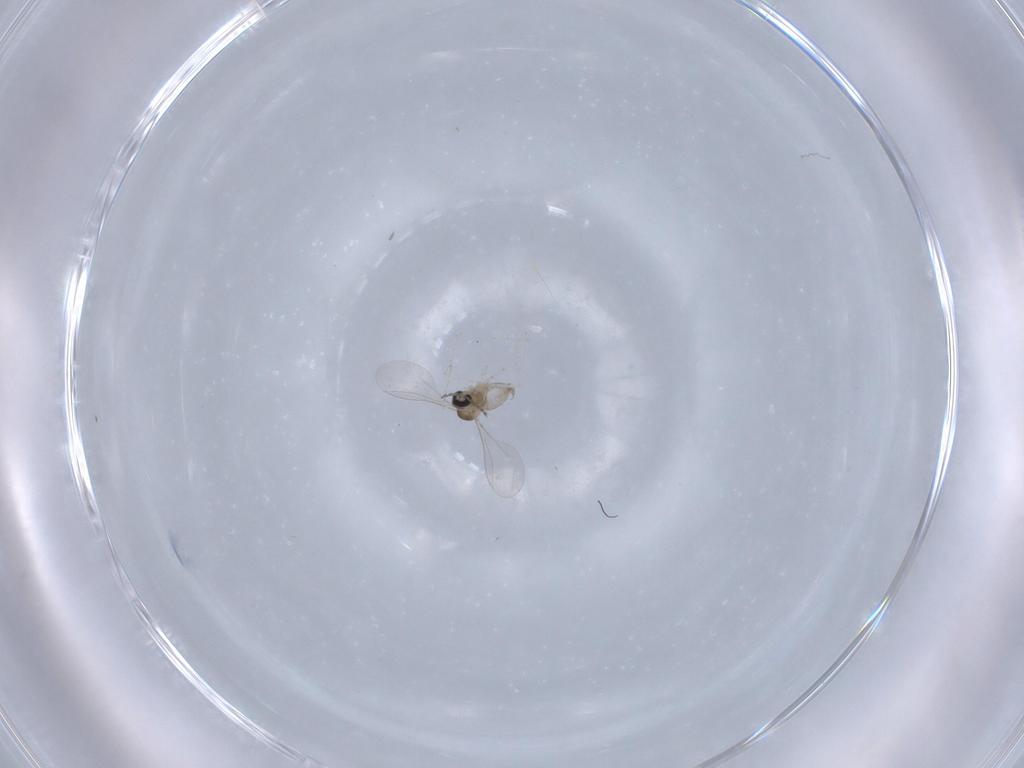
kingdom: Animalia
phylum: Arthropoda
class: Insecta
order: Diptera
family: Cecidomyiidae
